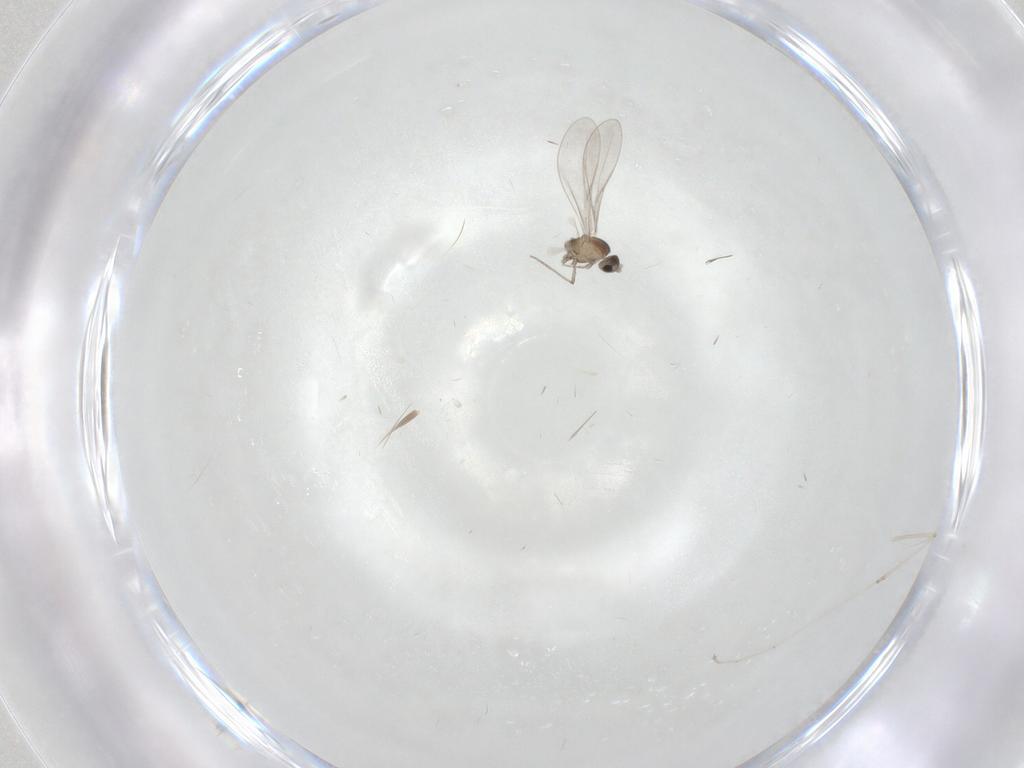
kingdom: Animalia
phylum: Arthropoda
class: Insecta
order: Diptera
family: Cecidomyiidae
